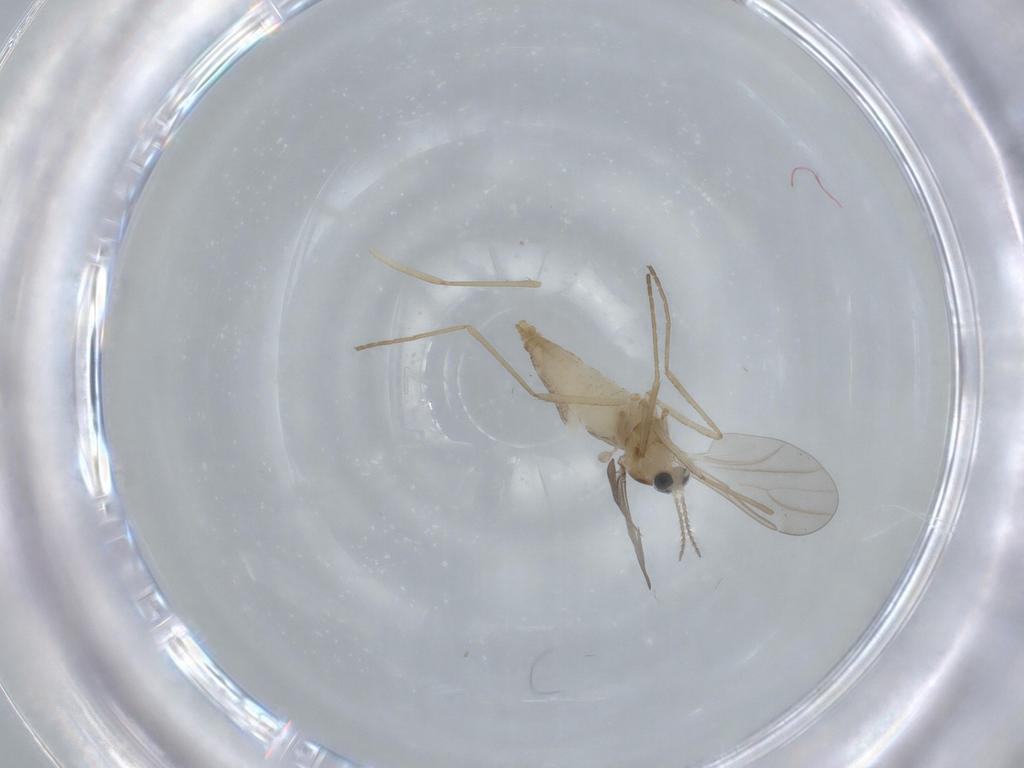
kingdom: Animalia
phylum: Arthropoda
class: Insecta
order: Diptera
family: Cecidomyiidae
